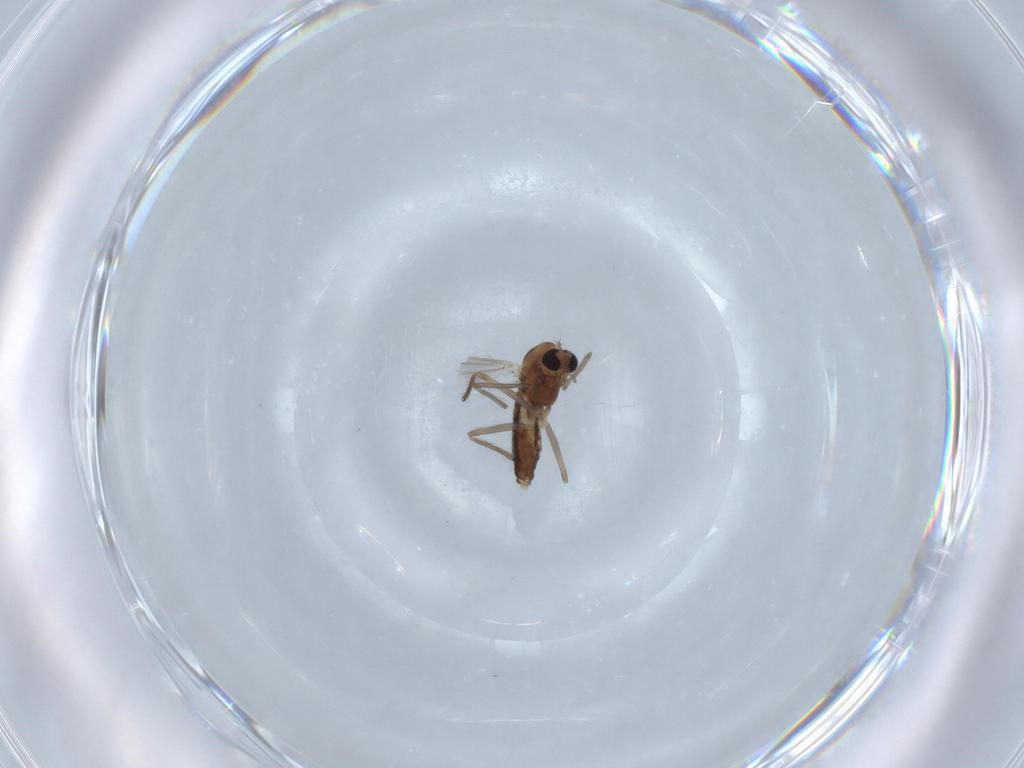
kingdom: Animalia
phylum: Arthropoda
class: Insecta
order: Diptera
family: Chironomidae
